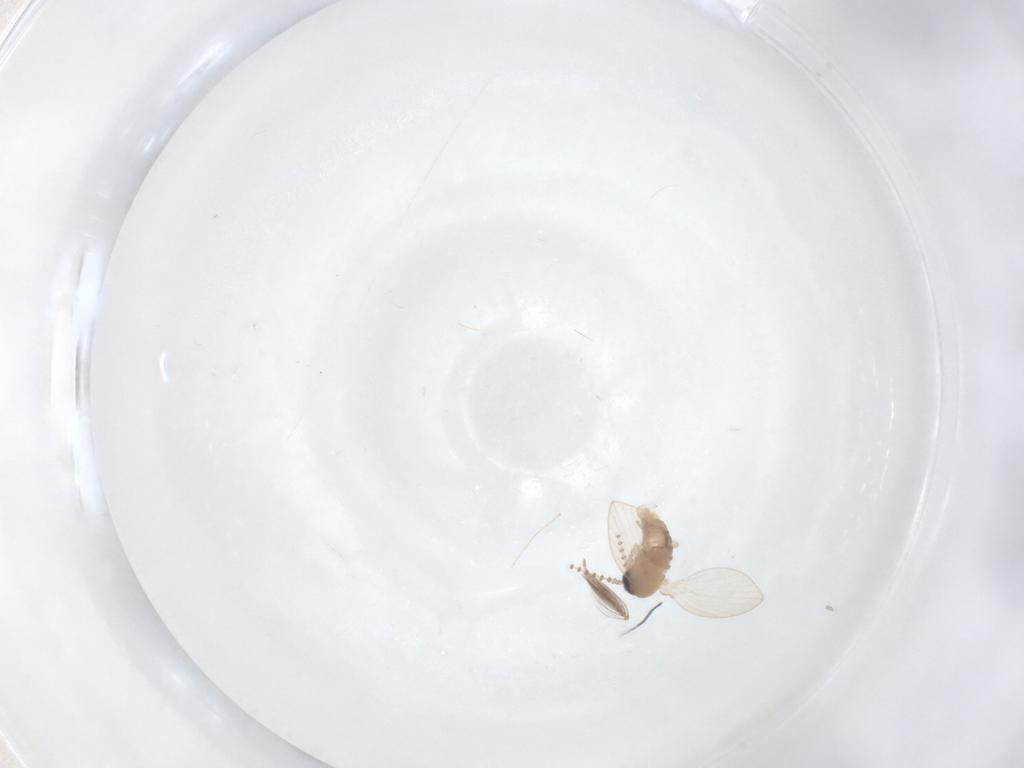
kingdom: Animalia
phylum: Arthropoda
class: Insecta
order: Diptera
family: Psychodidae
